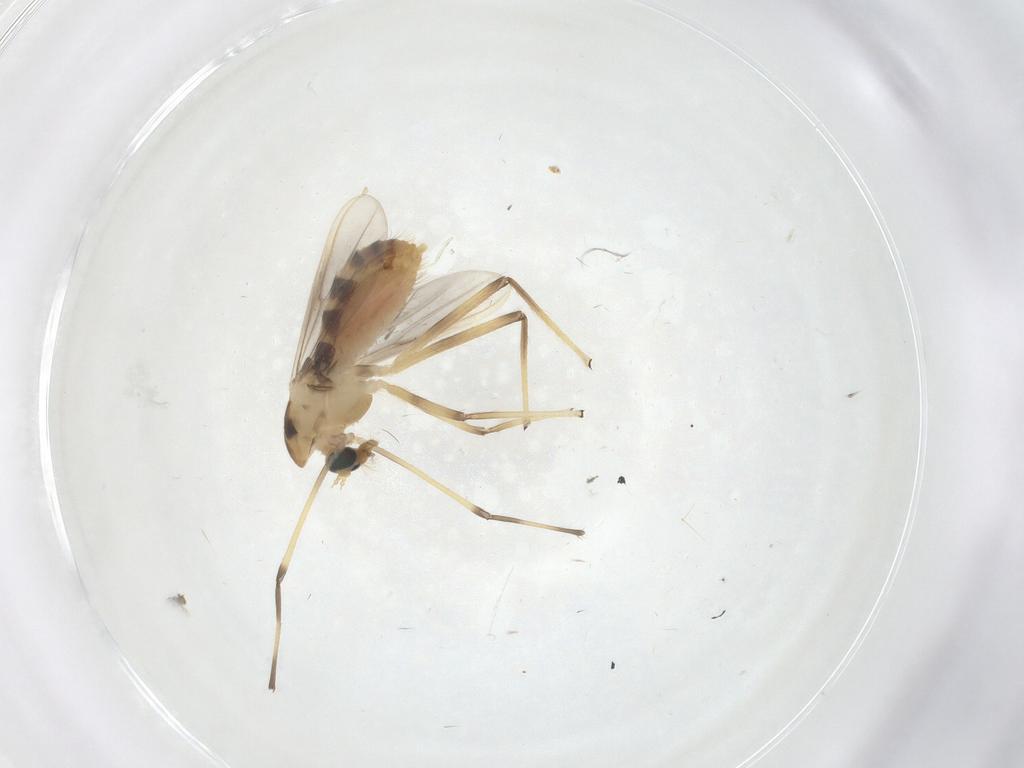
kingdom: Animalia
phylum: Arthropoda
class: Insecta
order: Diptera
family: Chironomidae
